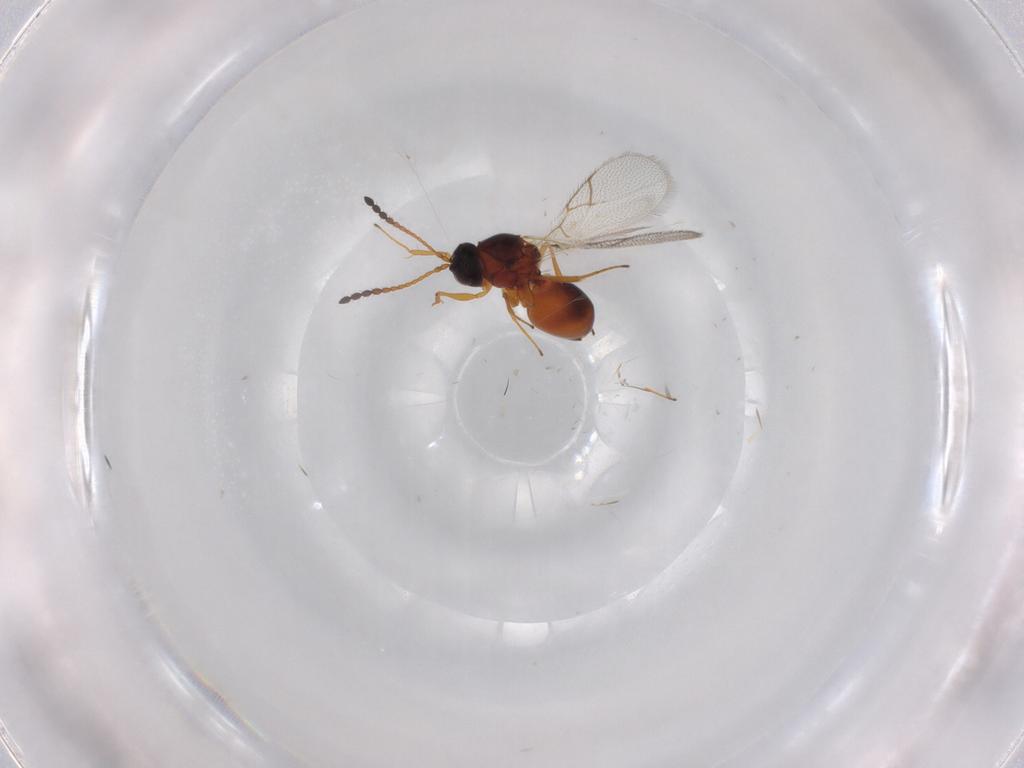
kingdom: Animalia
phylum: Arthropoda
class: Insecta
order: Hymenoptera
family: Figitidae
